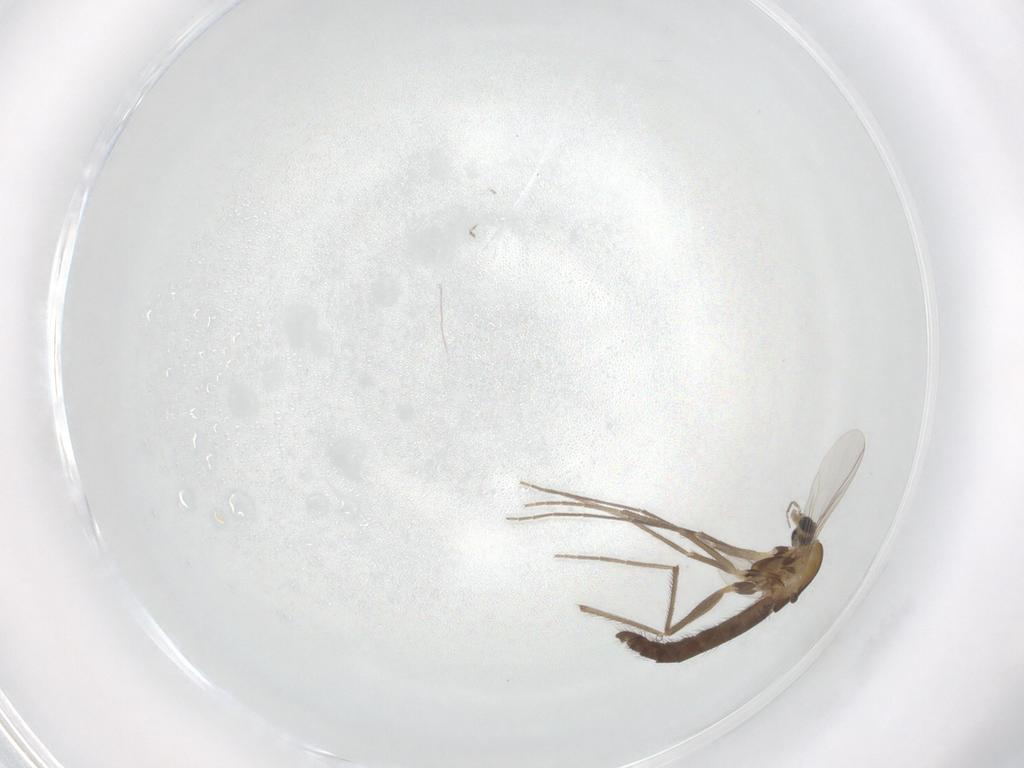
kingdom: Animalia
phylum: Arthropoda
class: Insecta
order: Diptera
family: Chironomidae
